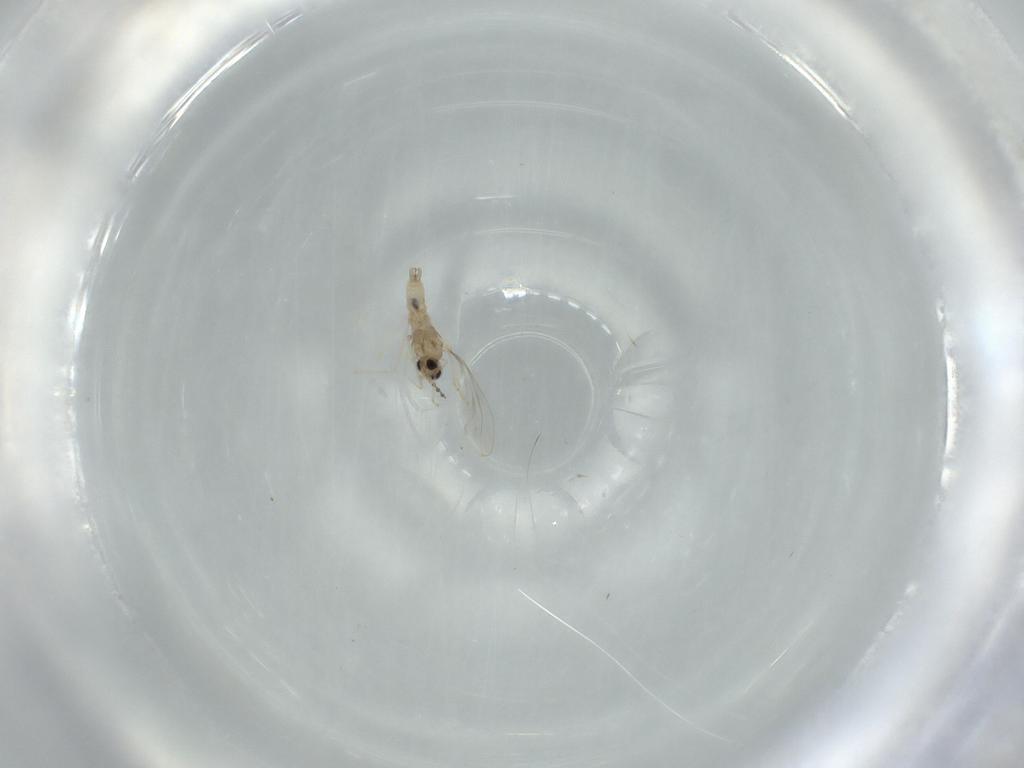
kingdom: Animalia
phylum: Arthropoda
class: Insecta
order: Diptera
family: Cecidomyiidae
